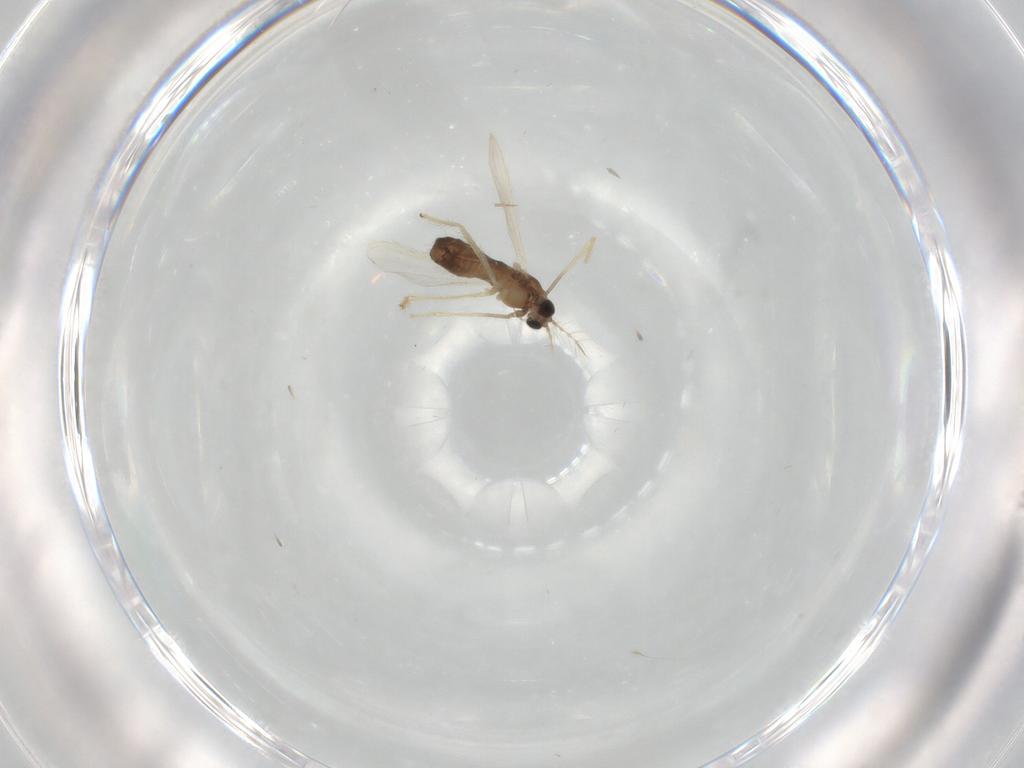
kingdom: Animalia
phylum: Arthropoda
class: Insecta
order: Diptera
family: Chironomidae
